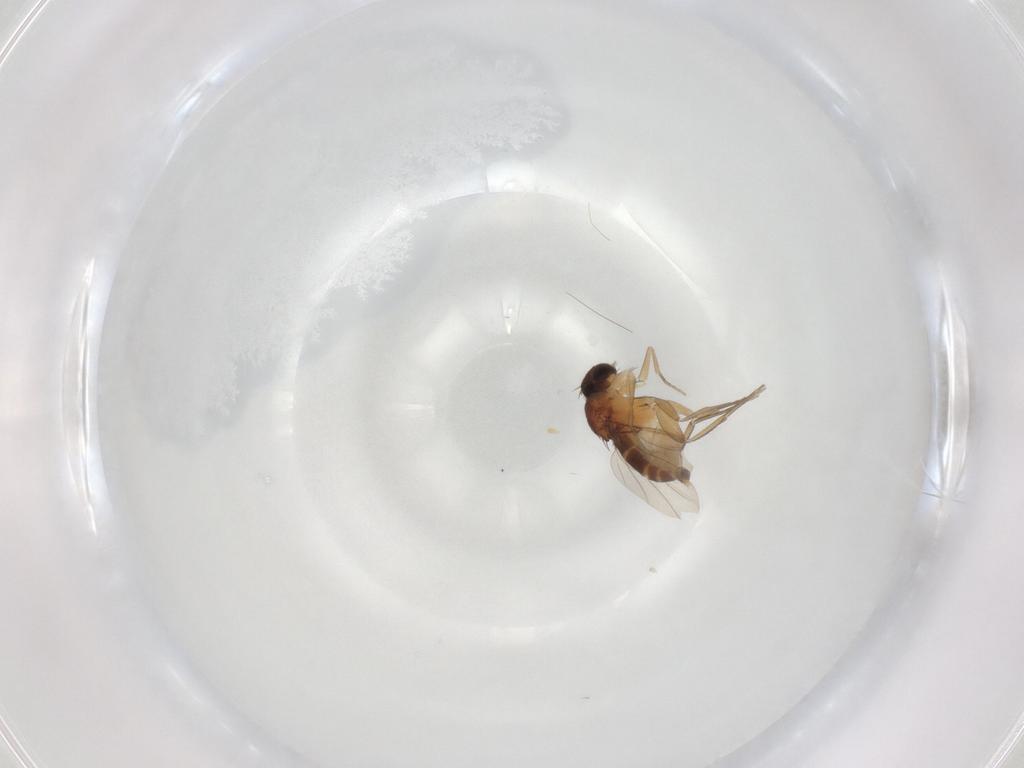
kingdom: Animalia
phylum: Arthropoda
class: Insecta
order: Diptera
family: Phoridae
